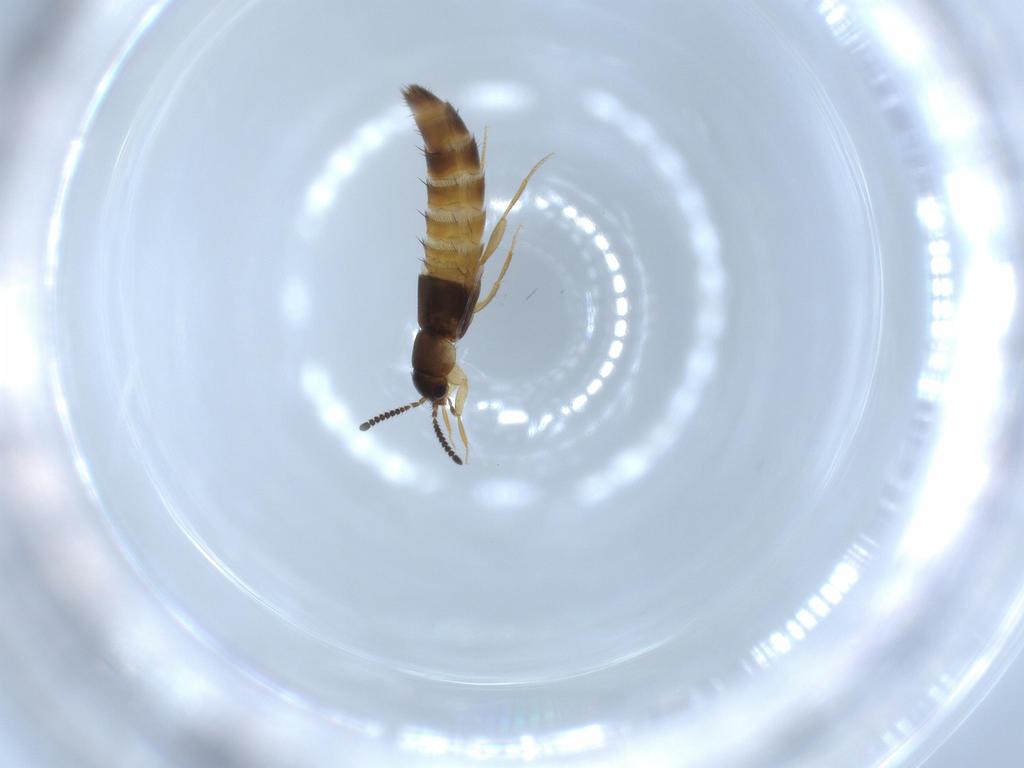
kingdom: Animalia
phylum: Arthropoda
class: Insecta
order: Coleoptera
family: Staphylinidae
